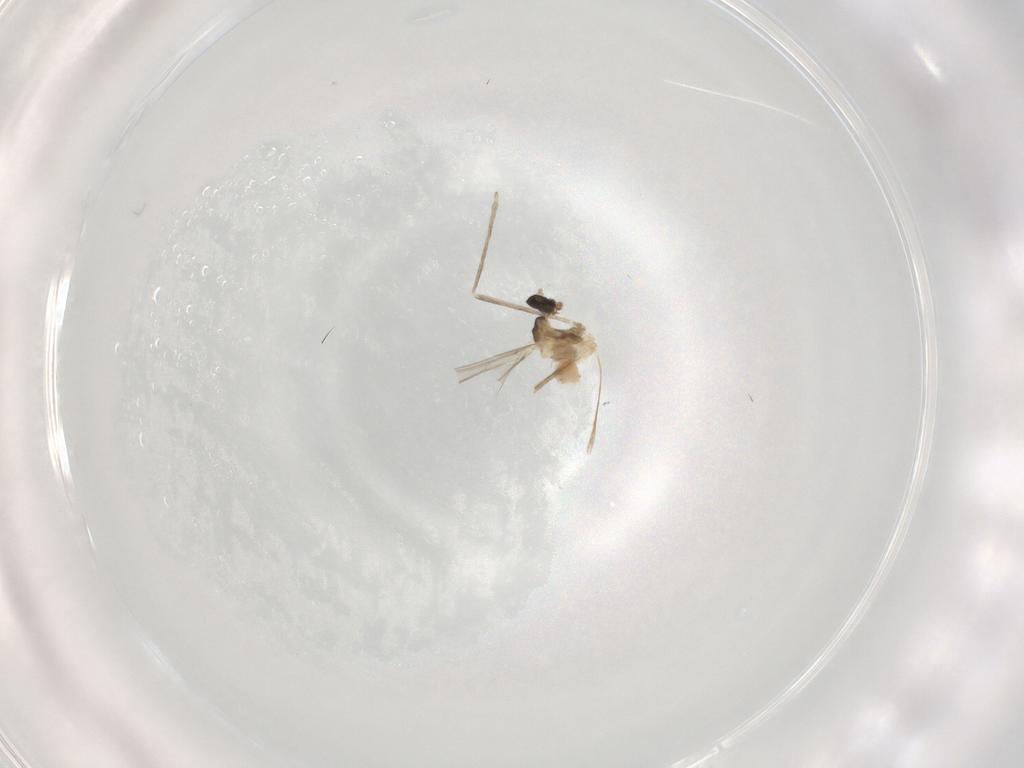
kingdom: Animalia
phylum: Arthropoda
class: Insecta
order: Diptera
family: Cecidomyiidae
